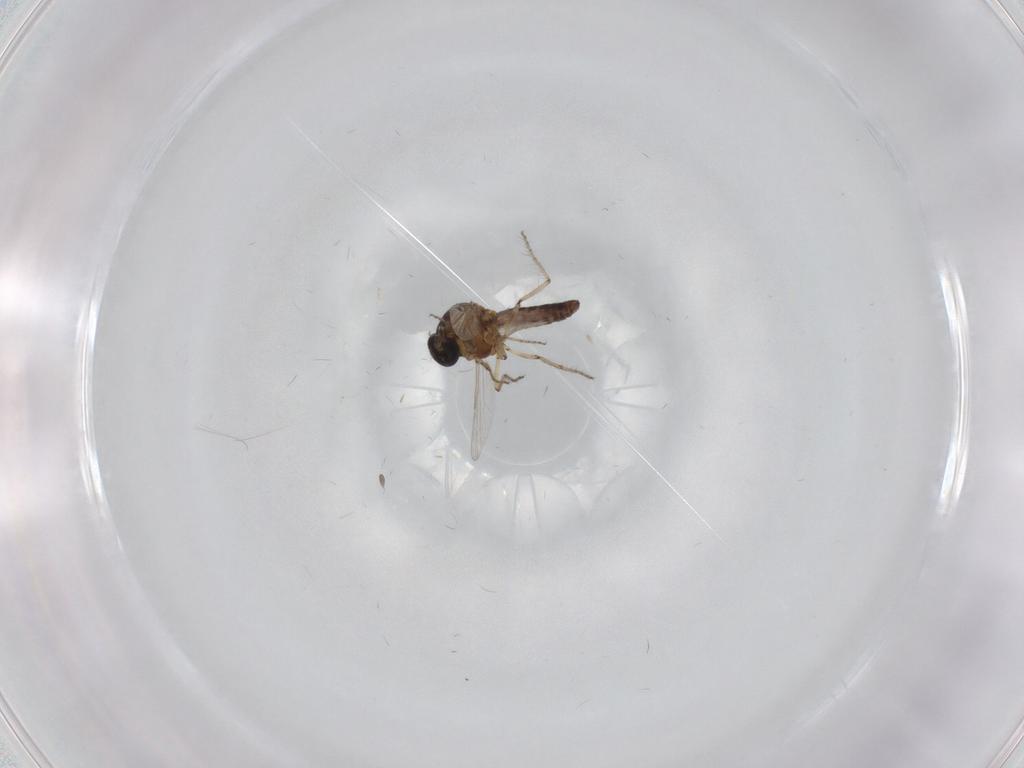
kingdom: Animalia
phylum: Arthropoda
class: Insecta
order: Diptera
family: Ceratopogonidae
